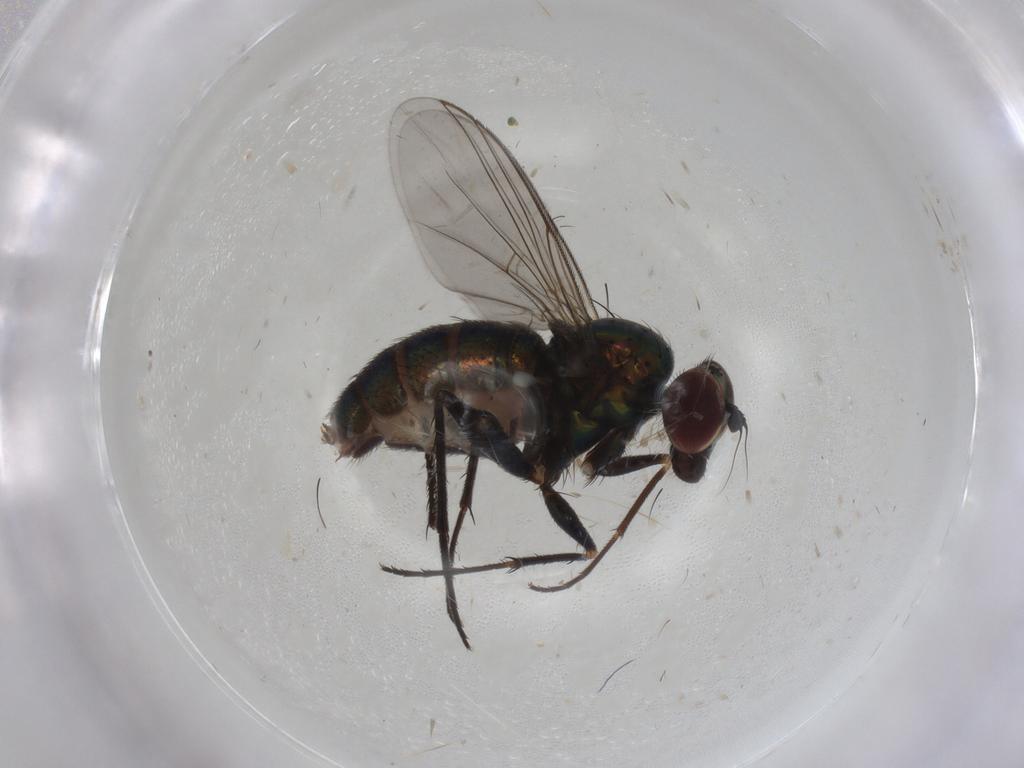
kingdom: Animalia
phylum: Arthropoda
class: Insecta
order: Diptera
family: Dolichopodidae
